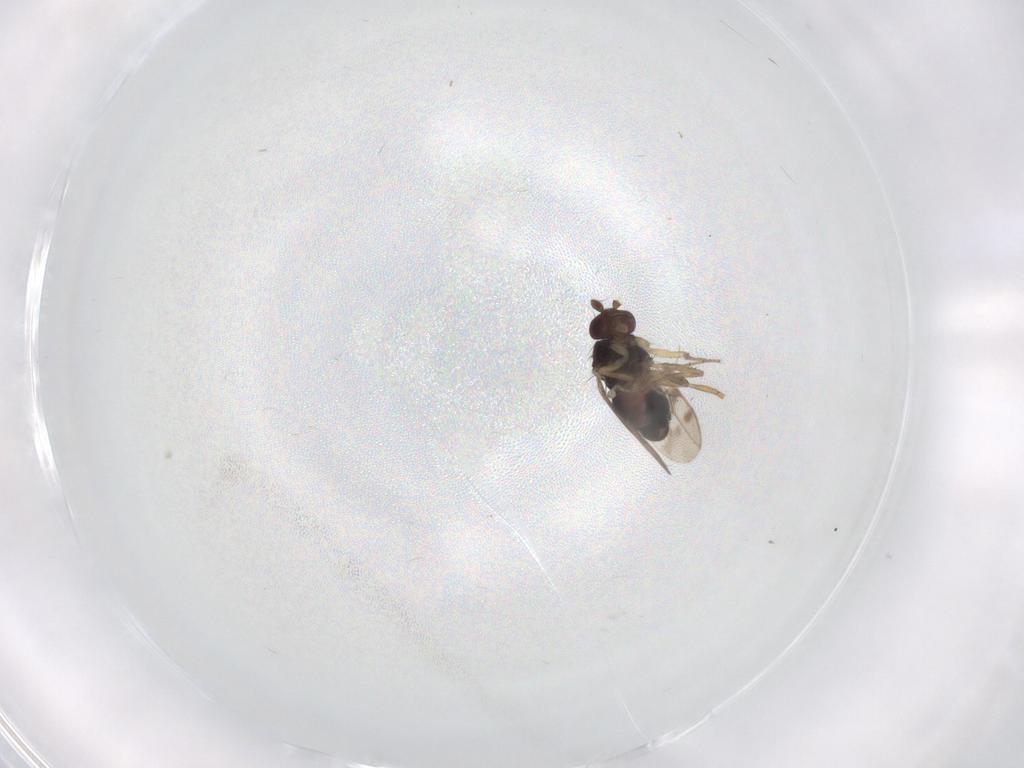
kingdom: Animalia
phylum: Arthropoda
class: Insecta
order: Diptera
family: Sphaeroceridae
